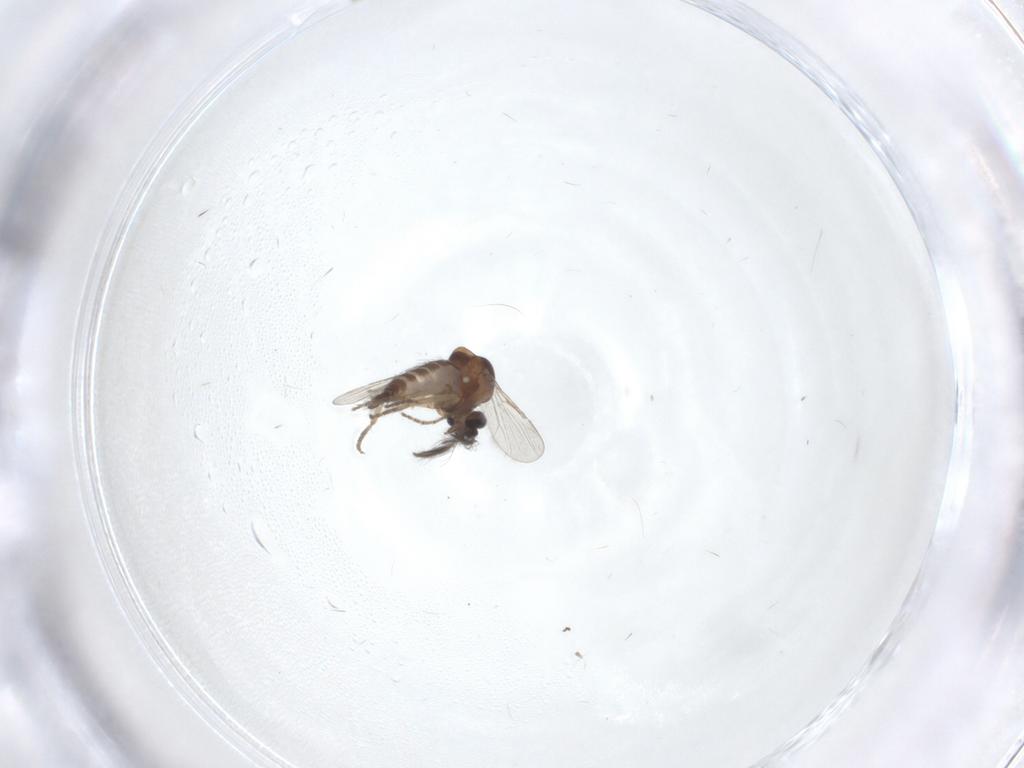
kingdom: Animalia
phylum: Arthropoda
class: Insecta
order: Diptera
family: Ceratopogonidae
